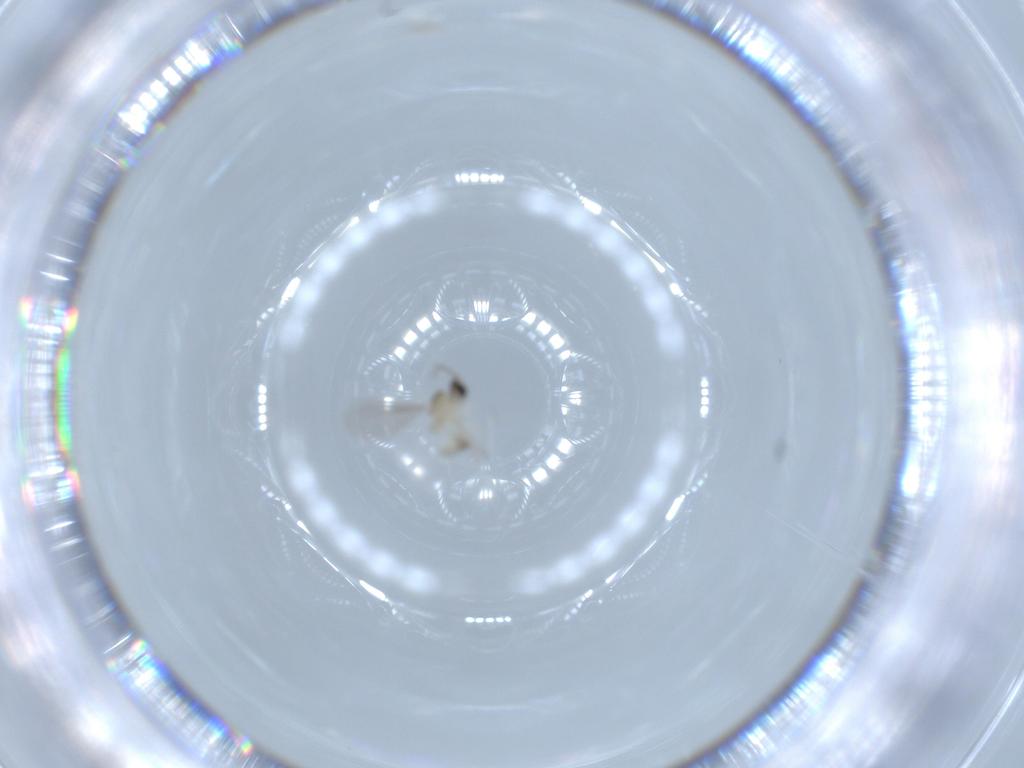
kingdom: Animalia
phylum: Arthropoda
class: Insecta
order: Diptera
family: Cecidomyiidae
